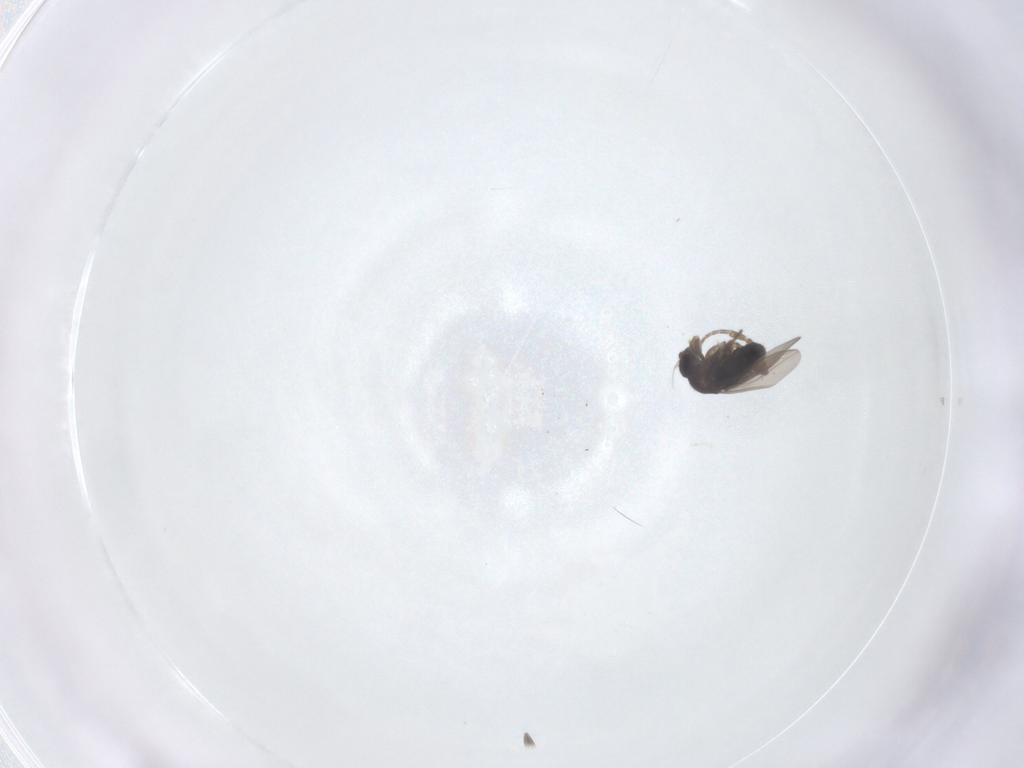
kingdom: Animalia
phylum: Arthropoda
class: Insecta
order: Diptera
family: Phoridae
